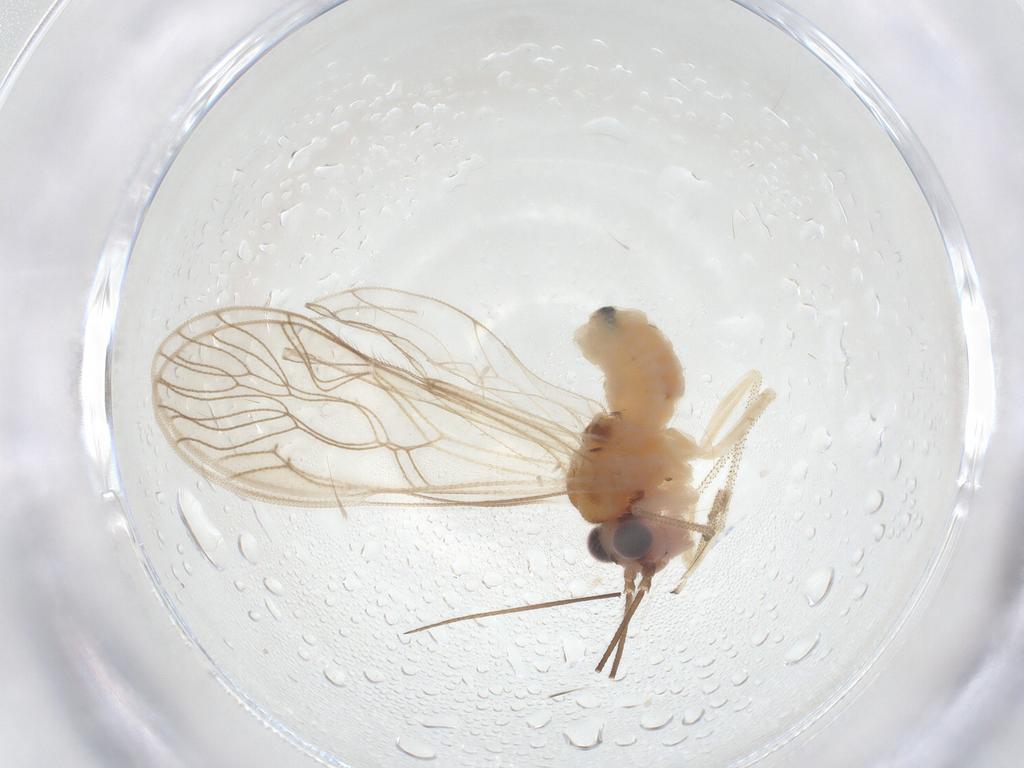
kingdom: Animalia
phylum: Arthropoda
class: Insecta
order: Psocodea
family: Amphipsocidae
